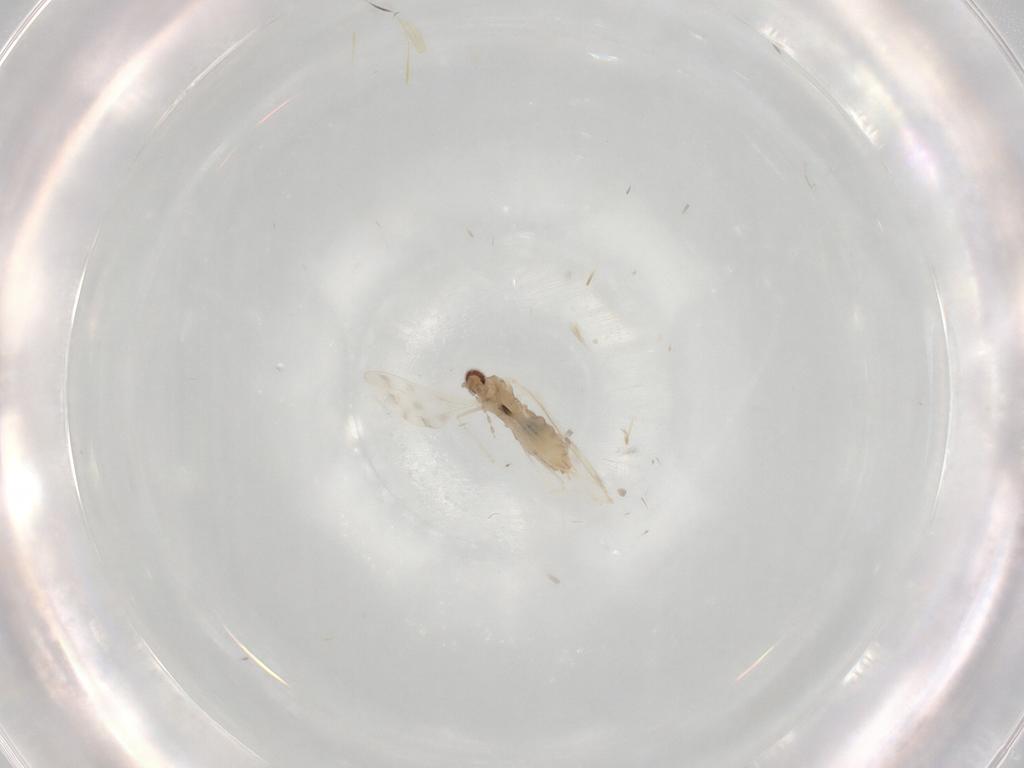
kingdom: Animalia
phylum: Arthropoda
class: Insecta
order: Diptera
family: Cecidomyiidae
